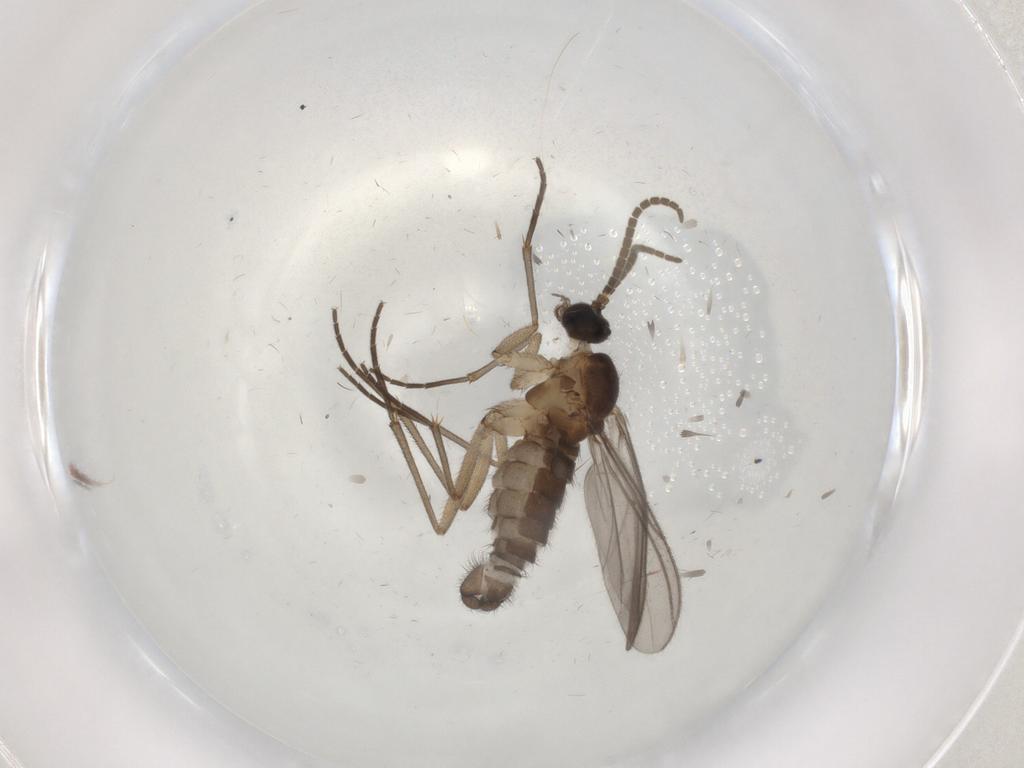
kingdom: Animalia
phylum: Arthropoda
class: Insecta
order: Diptera
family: Sciaridae
